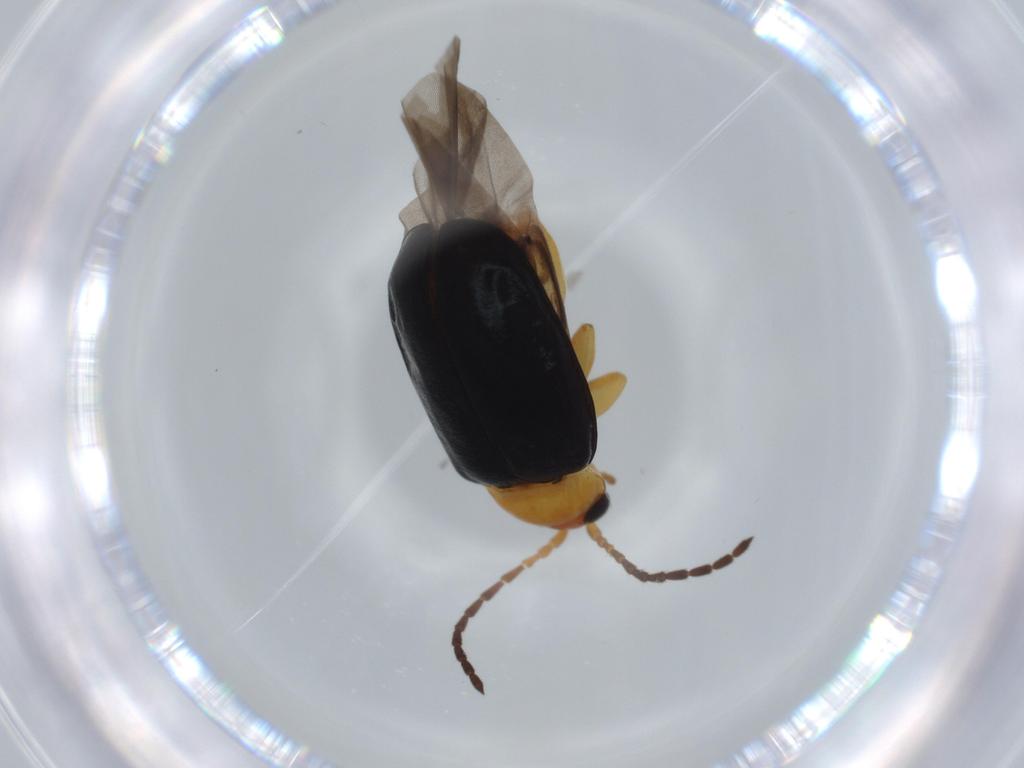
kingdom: Animalia
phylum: Arthropoda
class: Insecta
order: Coleoptera
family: Chrysomelidae
